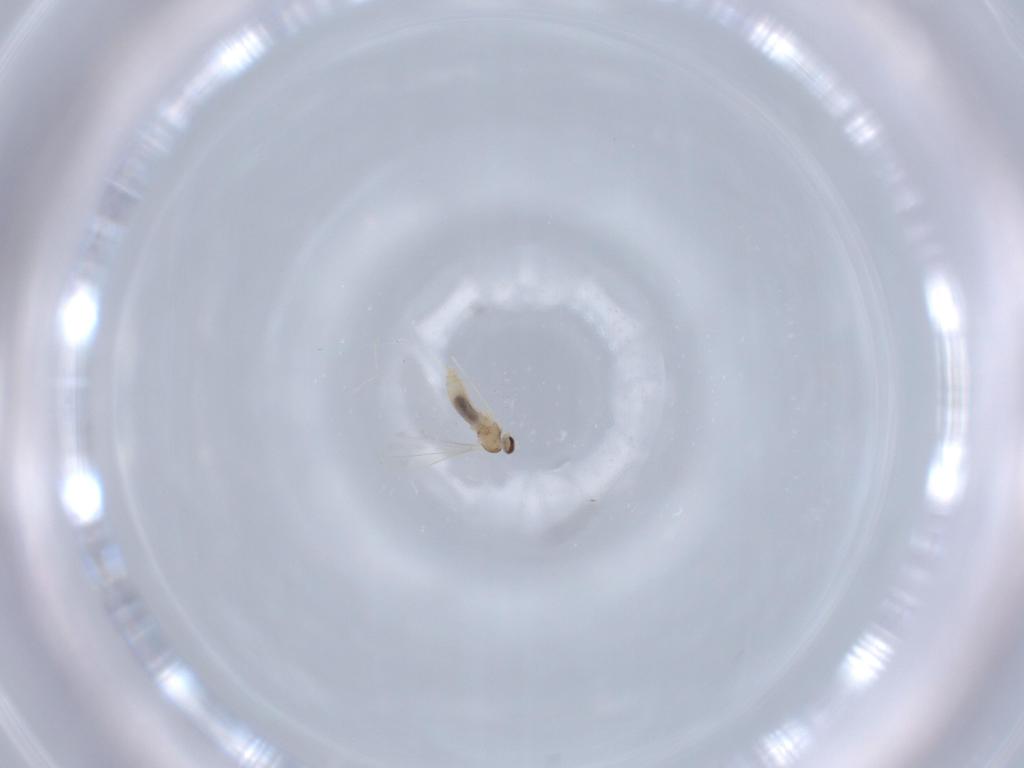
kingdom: Animalia
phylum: Arthropoda
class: Insecta
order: Diptera
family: Cecidomyiidae
